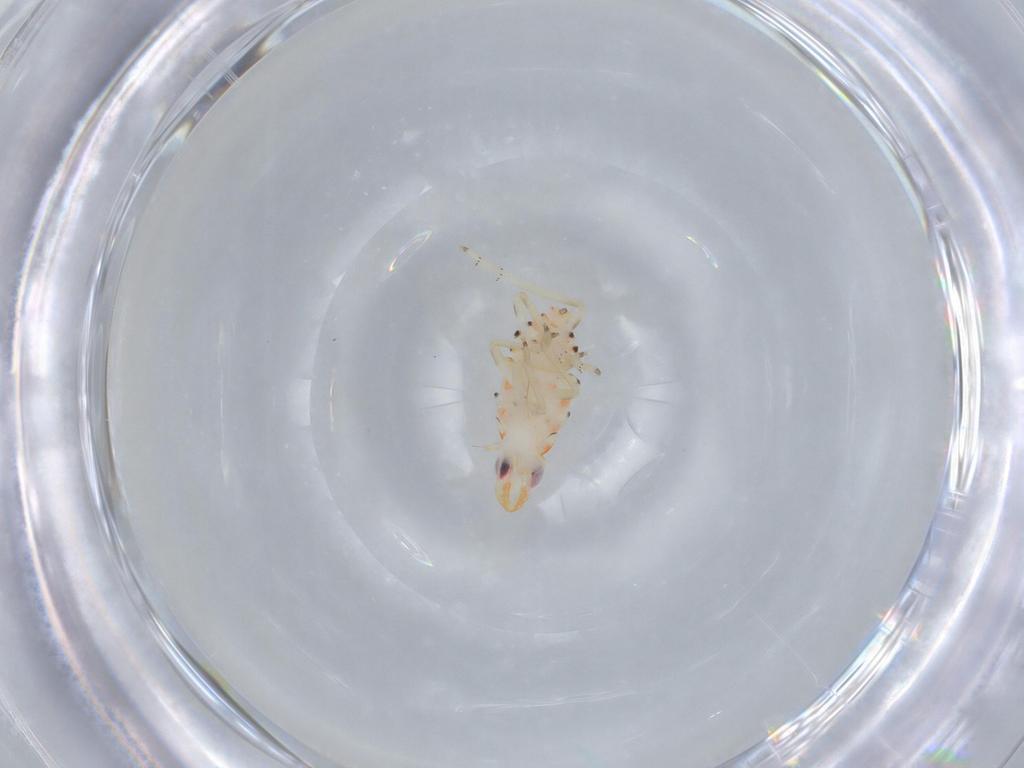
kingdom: Animalia
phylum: Arthropoda
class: Insecta
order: Hemiptera
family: Tropiduchidae
